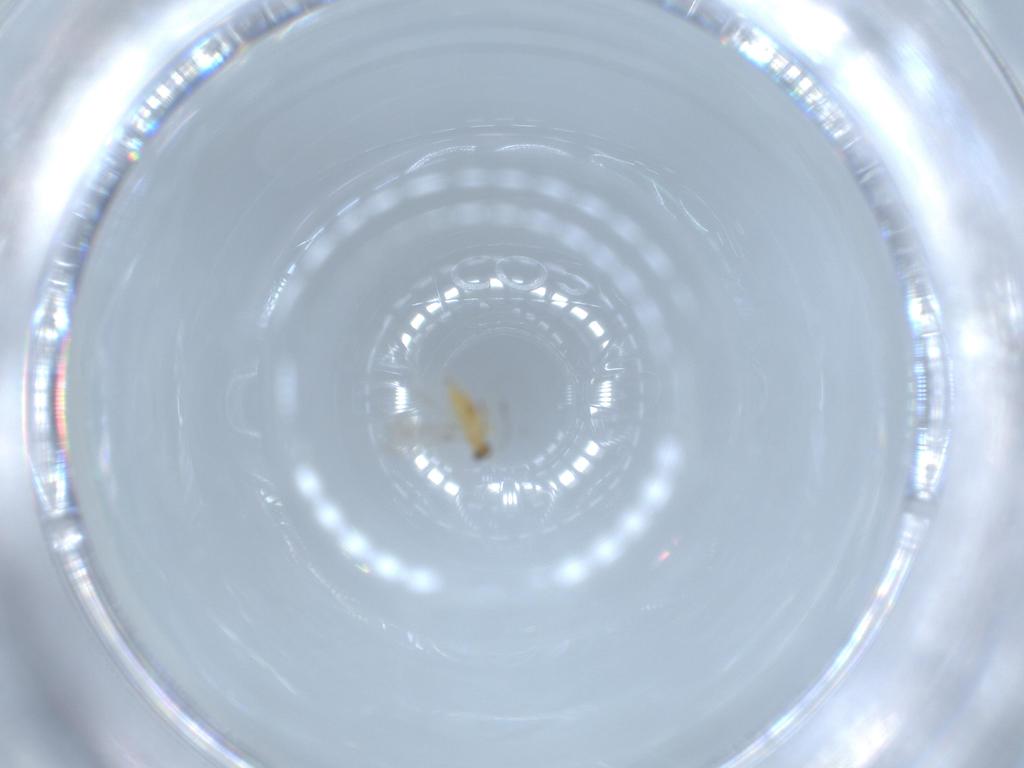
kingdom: Animalia
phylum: Arthropoda
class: Insecta
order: Hymenoptera
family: Mymaridae
